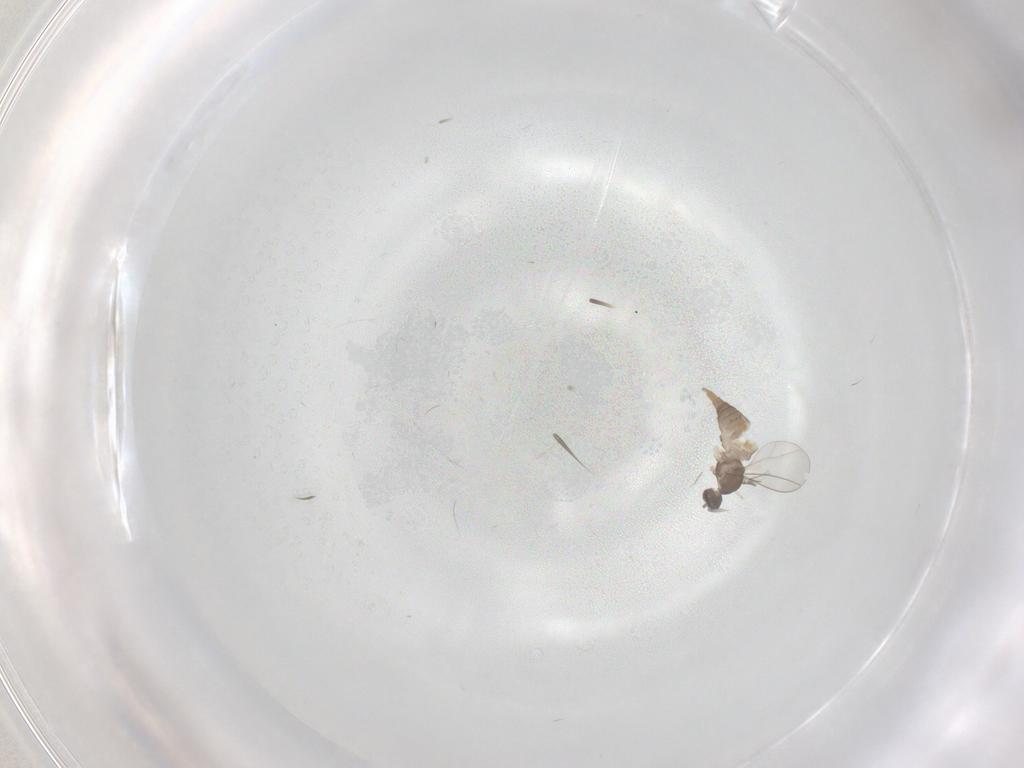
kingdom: Animalia
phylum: Arthropoda
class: Insecta
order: Diptera
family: Cecidomyiidae
